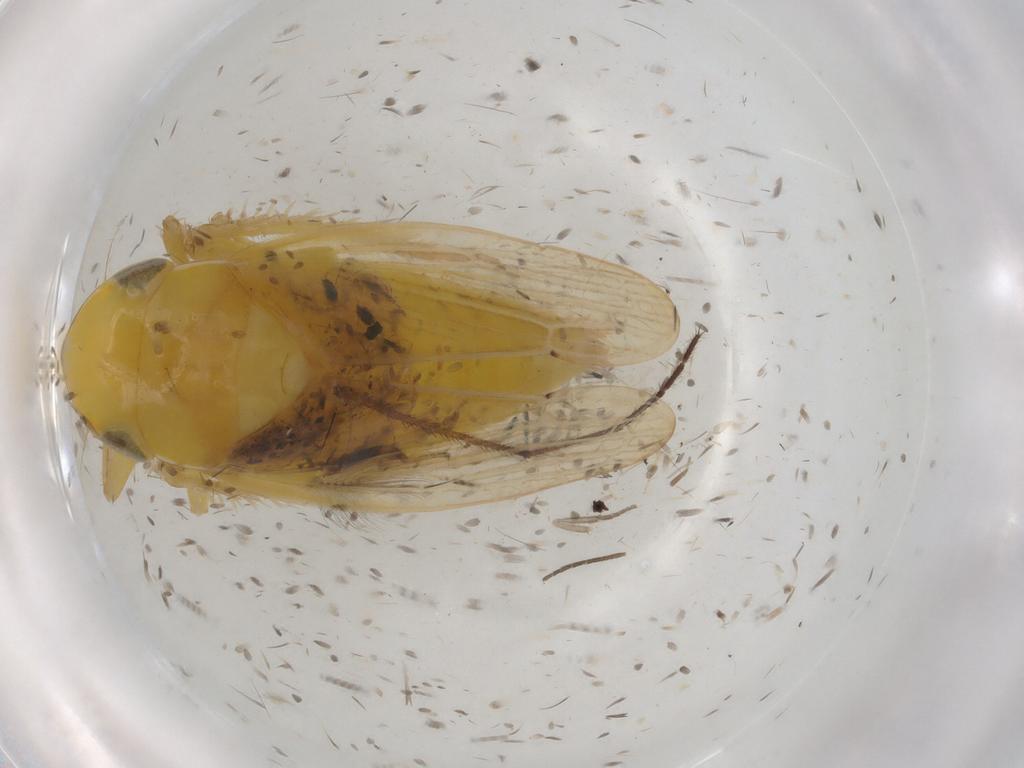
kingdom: Animalia
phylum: Arthropoda
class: Insecta
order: Hemiptera
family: Cicadellidae
